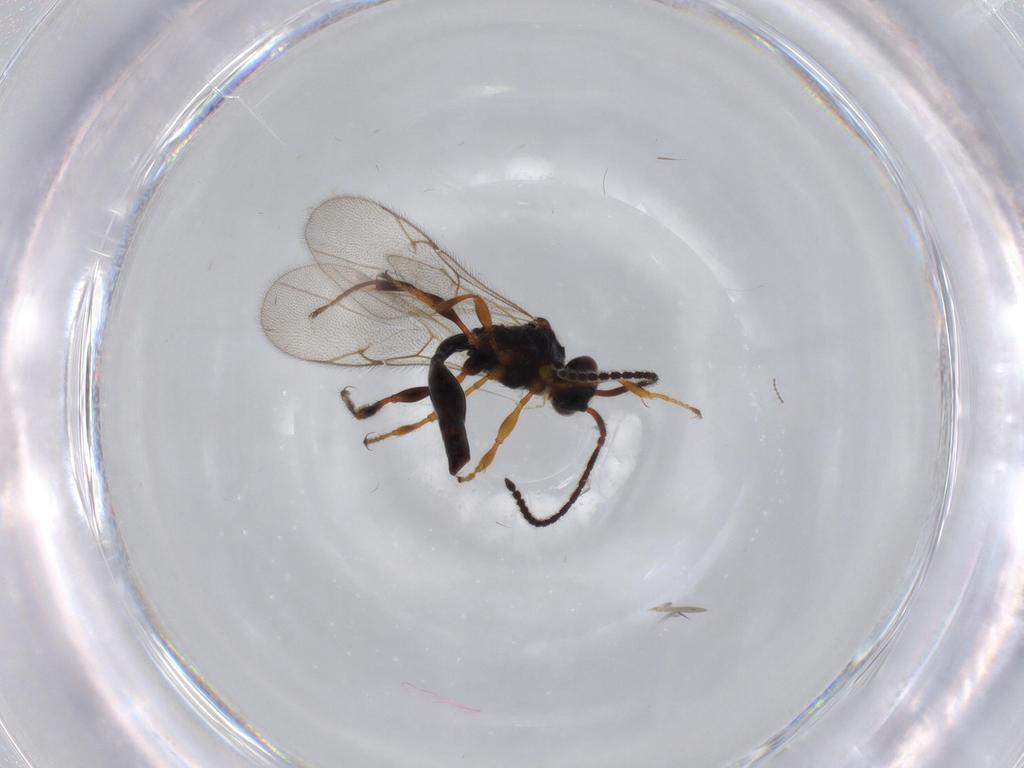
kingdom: Animalia
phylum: Arthropoda
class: Insecta
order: Hymenoptera
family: Diapriidae
